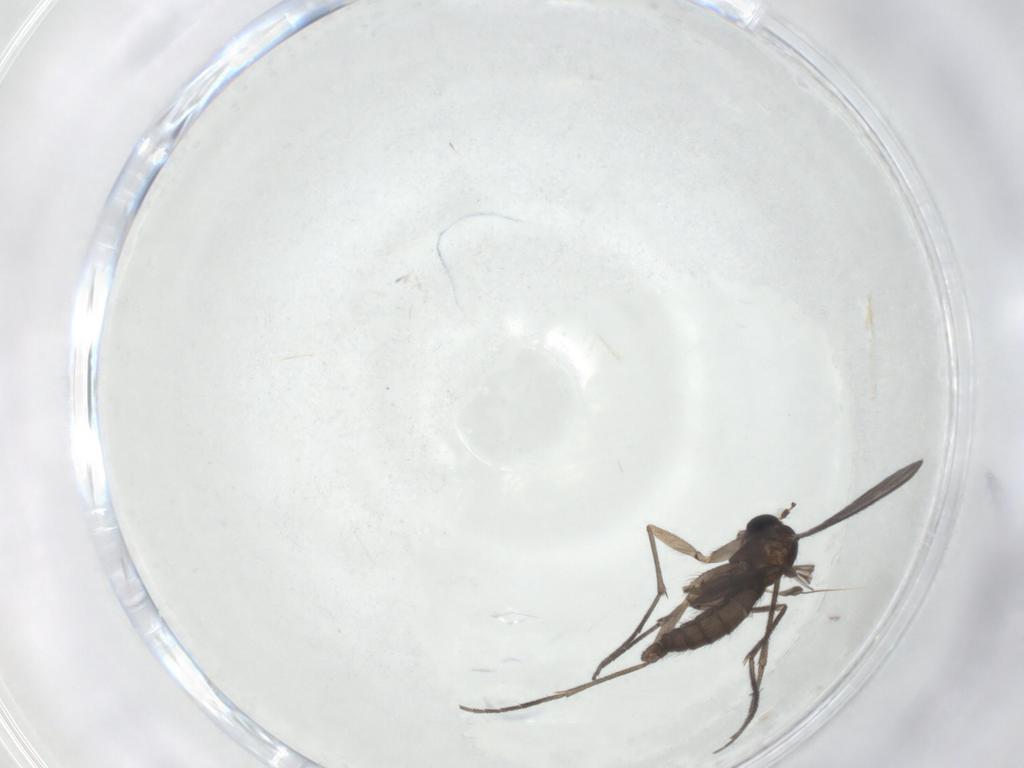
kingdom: Animalia
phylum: Arthropoda
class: Insecta
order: Diptera
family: Sciaridae
